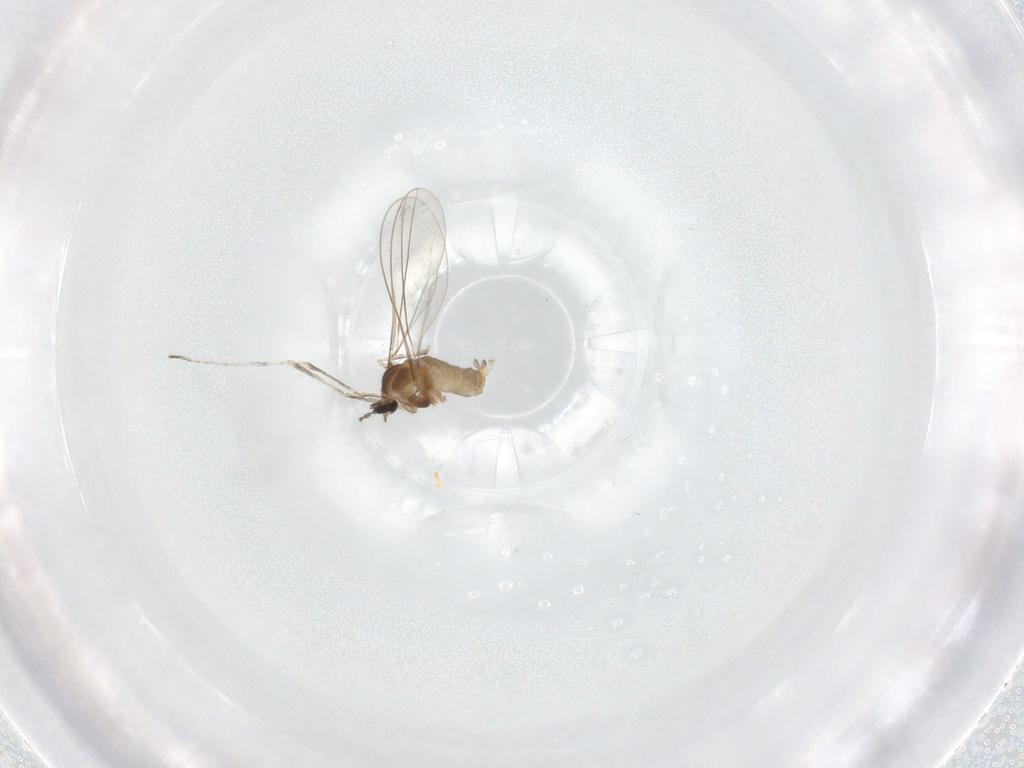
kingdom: Animalia
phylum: Arthropoda
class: Insecta
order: Diptera
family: Cecidomyiidae
